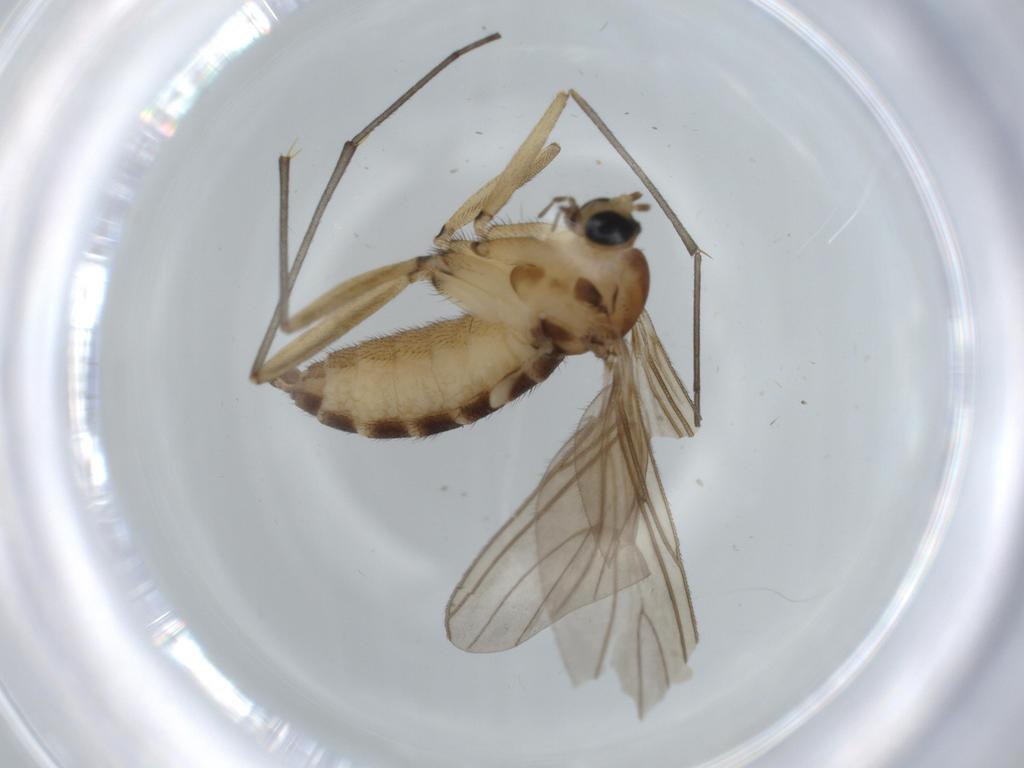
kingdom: Animalia
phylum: Arthropoda
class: Insecta
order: Diptera
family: Sciaridae
